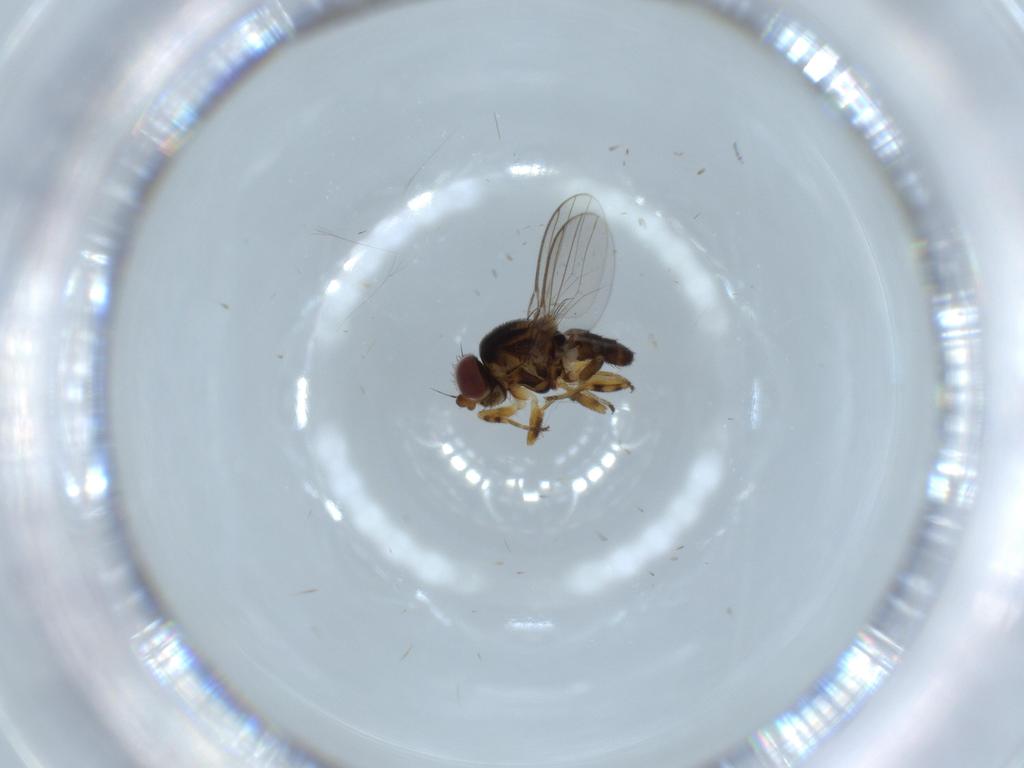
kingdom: Animalia
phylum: Arthropoda
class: Insecta
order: Diptera
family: Chloropidae
